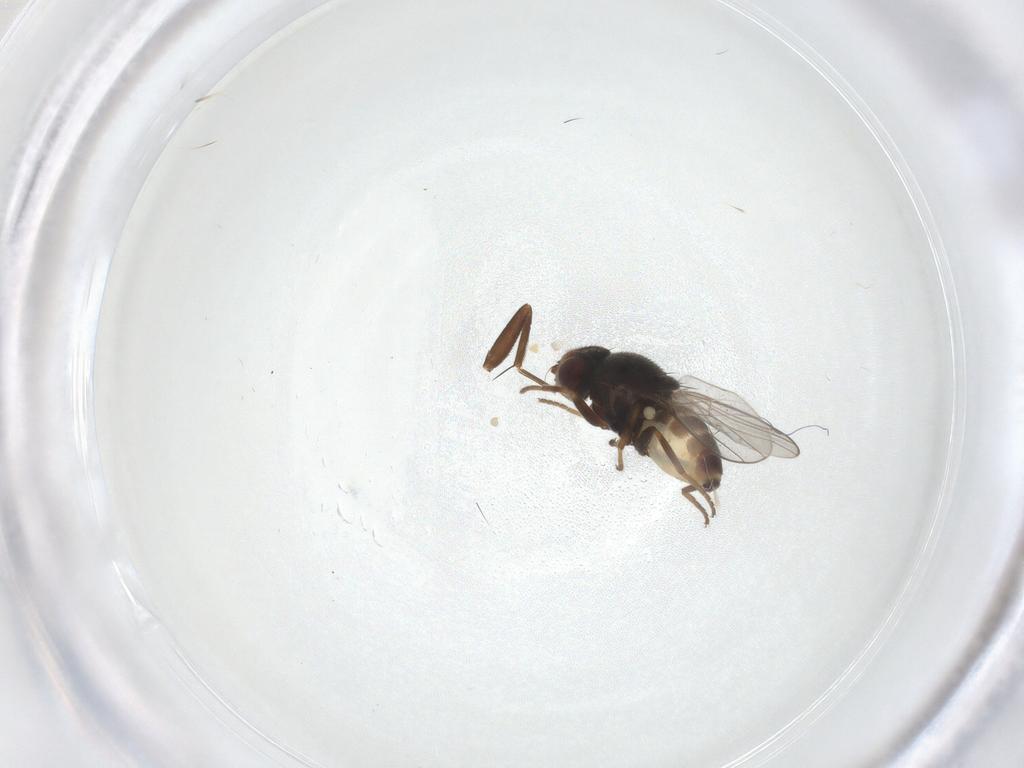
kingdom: Animalia
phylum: Arthropoda
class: Insecta
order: Diptera
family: Chloropidae
